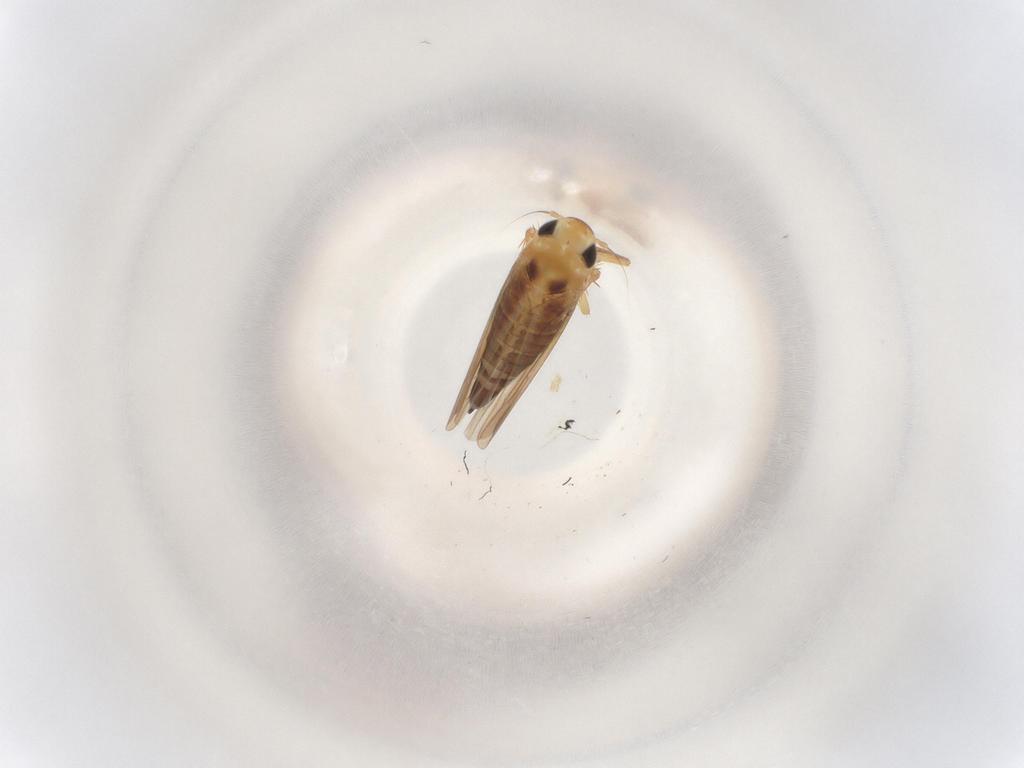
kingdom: Animalia
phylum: Arthropoda
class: Insecta
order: Hemiptera
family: Cicadellidae
